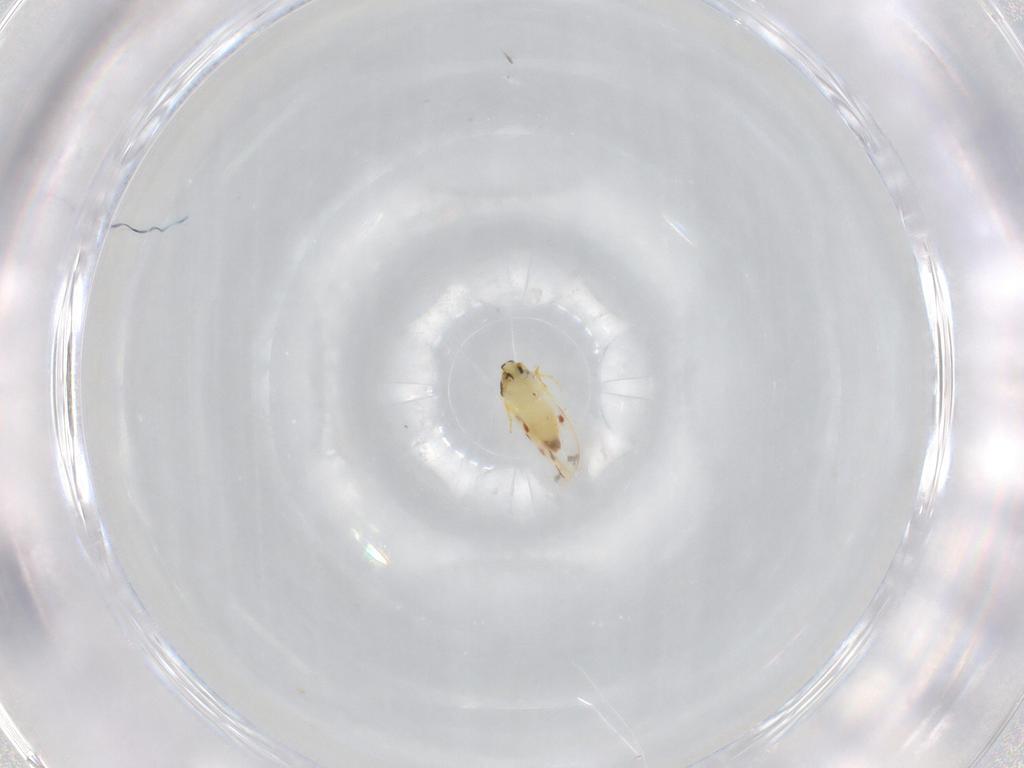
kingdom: Animalia
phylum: Arthropoda
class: Insecta
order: Hemiptera
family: Aleyrodidae
